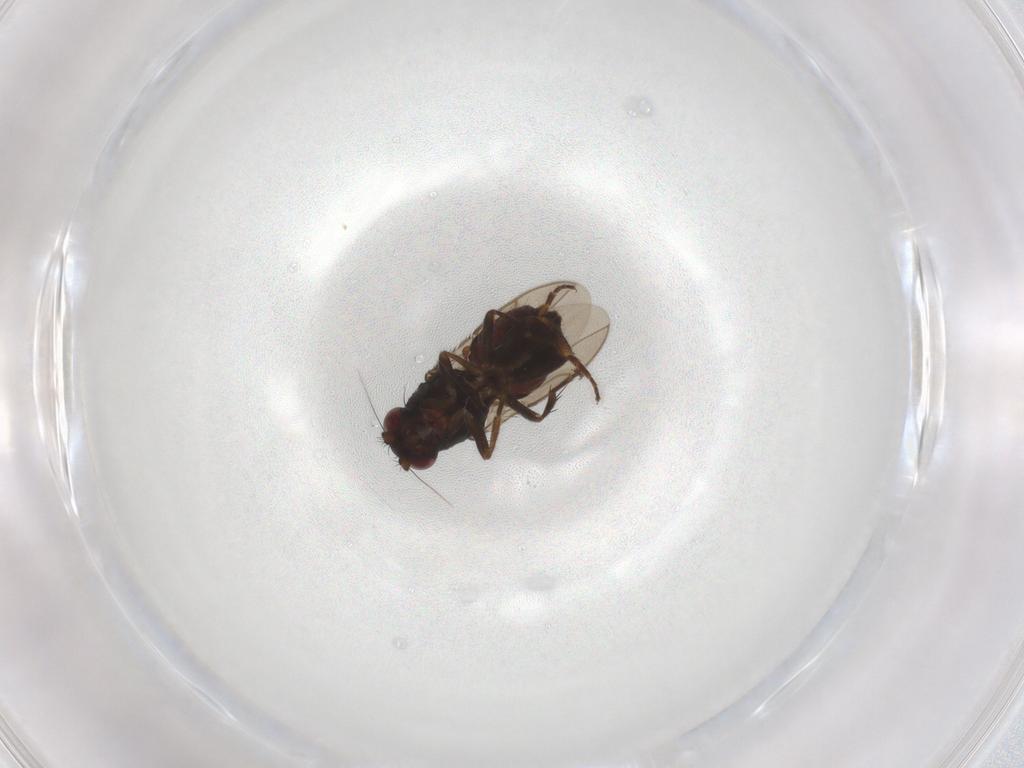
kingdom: Animalia
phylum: Arthropoda
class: Insecta
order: Diptera
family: Sphaeroceridae
